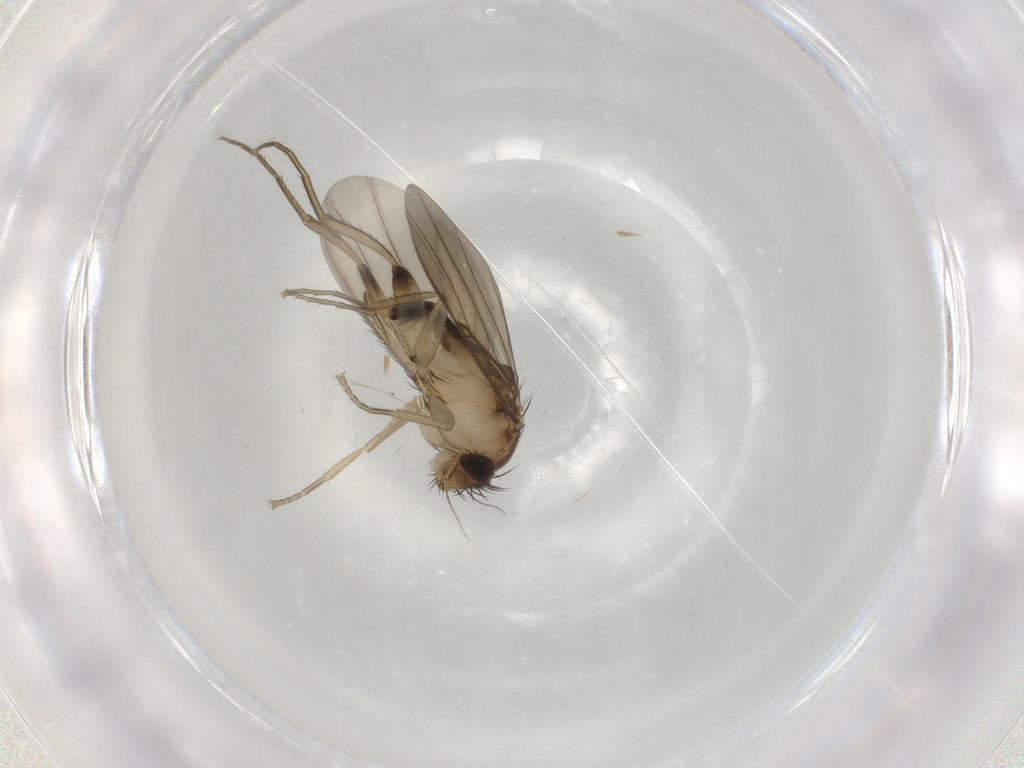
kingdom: Animalia
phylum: Arthropoda
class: Insecta
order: Diptera
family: Phoridae
